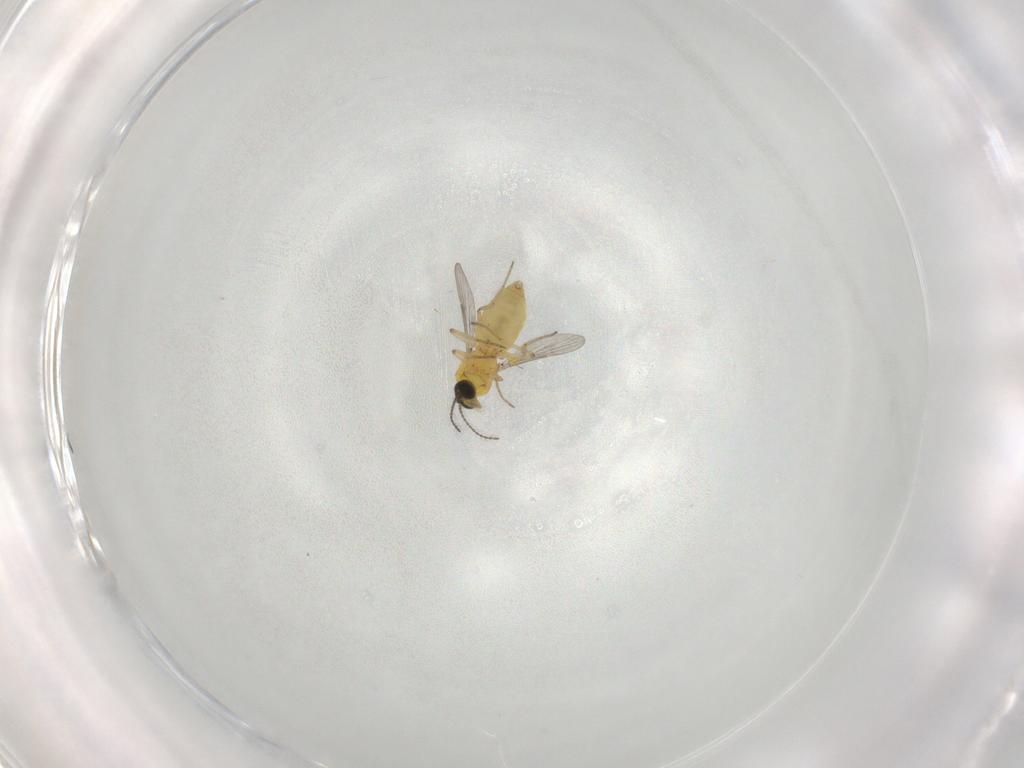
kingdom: Animalia
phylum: Arthropoda
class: Insecta
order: Diptera
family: Ceratopogonidae
